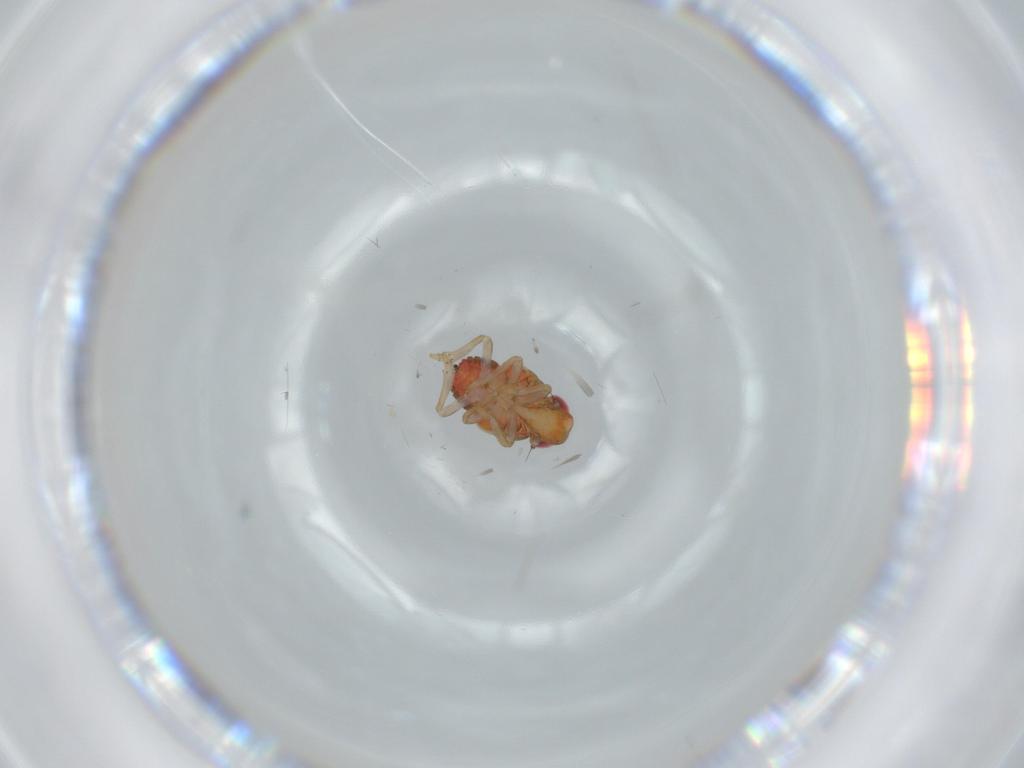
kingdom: Animalia
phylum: Arthropoda
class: Insecta
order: Hemiptera
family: Issidae
